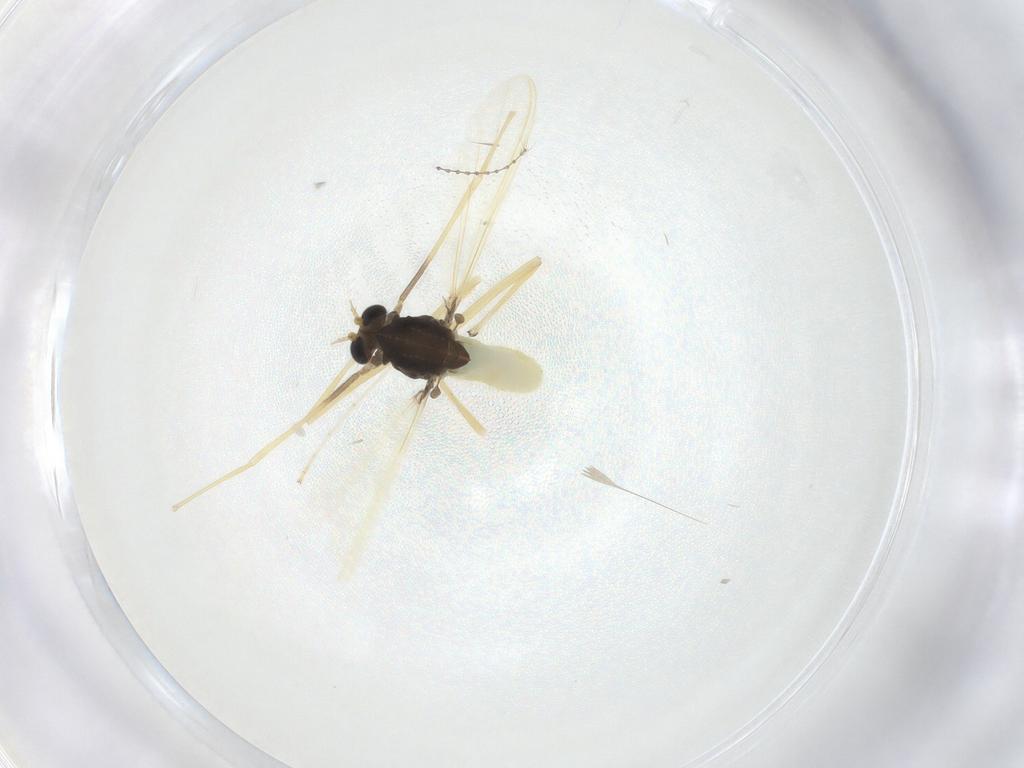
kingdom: Animalia
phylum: Arthropoda
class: Insecta
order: Diptera
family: Chironomidae
